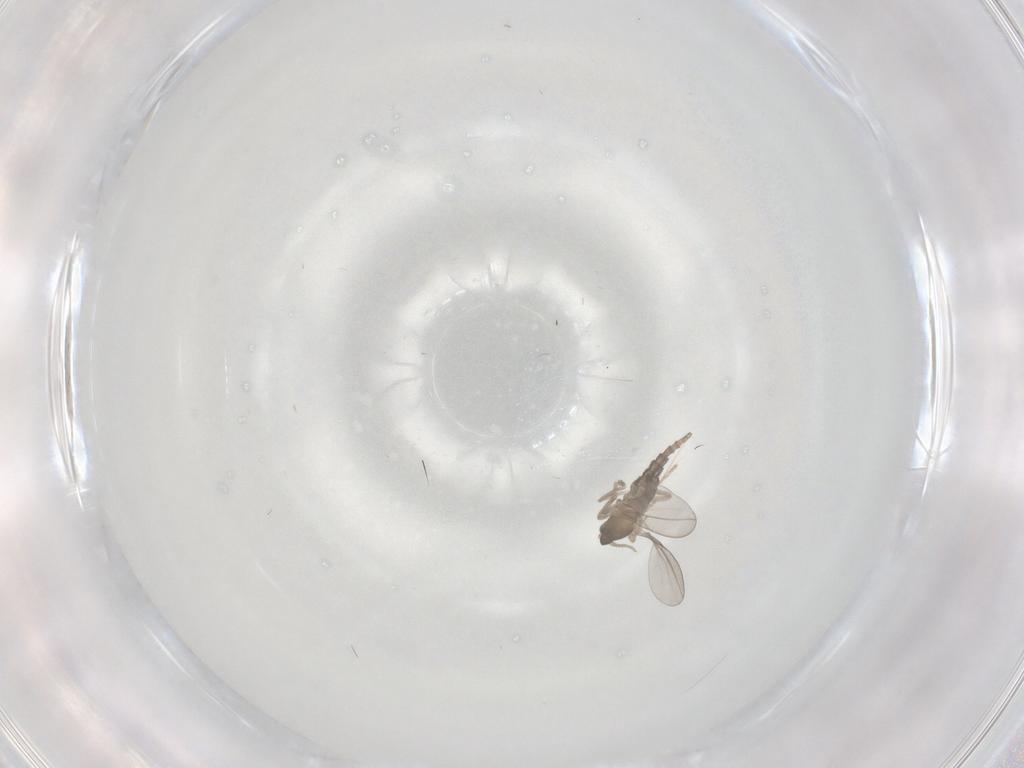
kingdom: Animalia
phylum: Arthropoda
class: Insecta
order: Diptera
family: Cecidomyiidae
